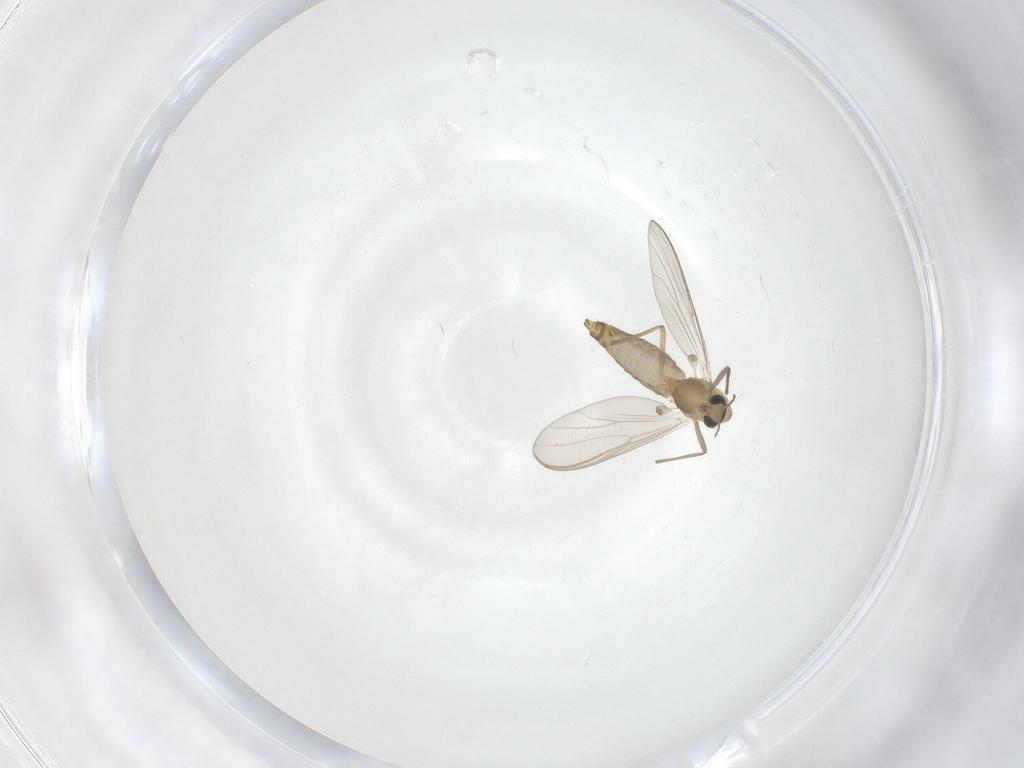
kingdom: Animalia
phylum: Arthropoda
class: Insecta
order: Diptera
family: Chironomidae
